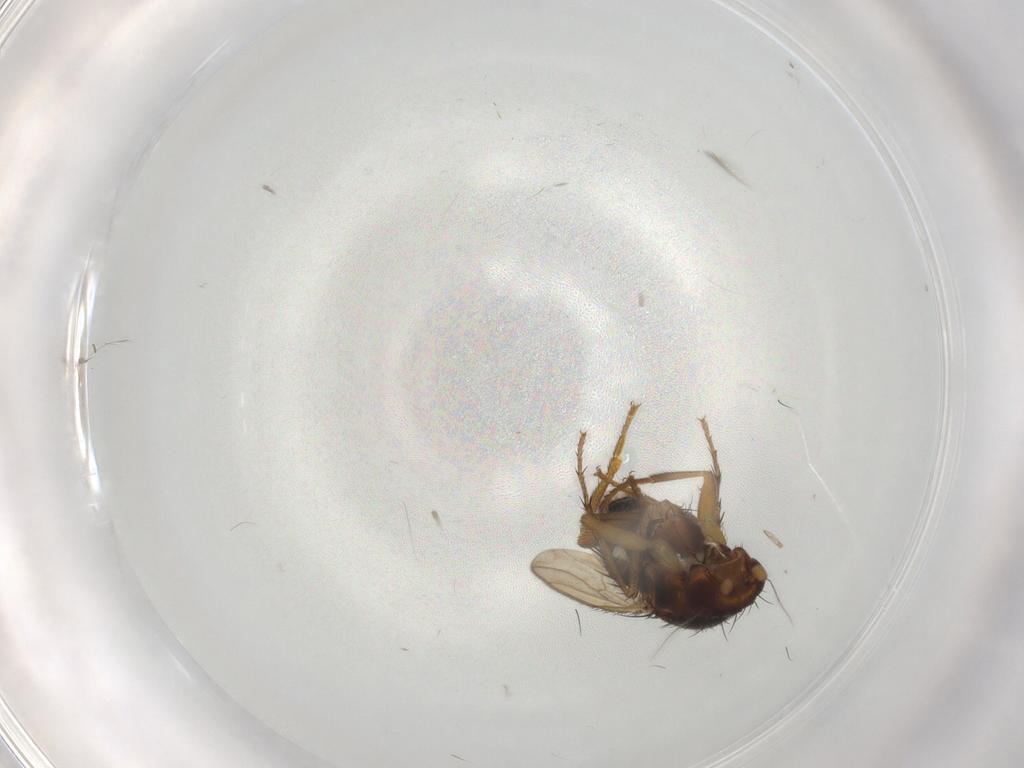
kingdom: Animalia
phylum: Arthropoda
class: Insecta
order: Diptera
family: Sphaeroceridae
